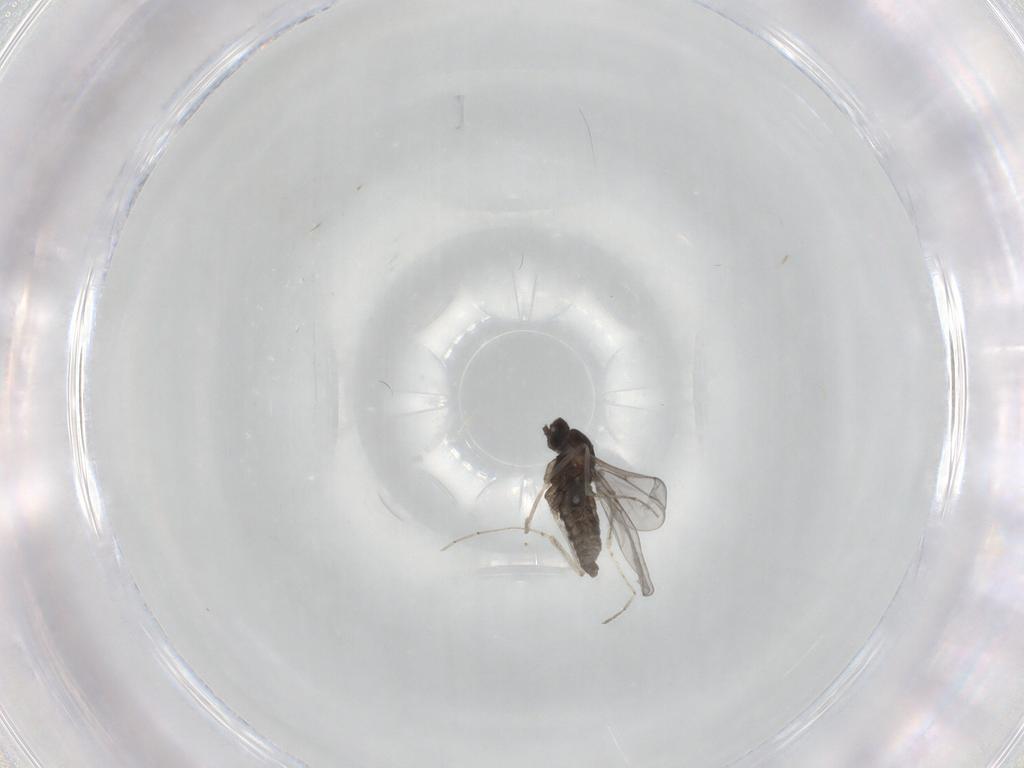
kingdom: Animalia
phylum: Arthropoda
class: Insecta
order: Diptera
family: Cecidomyiidae
